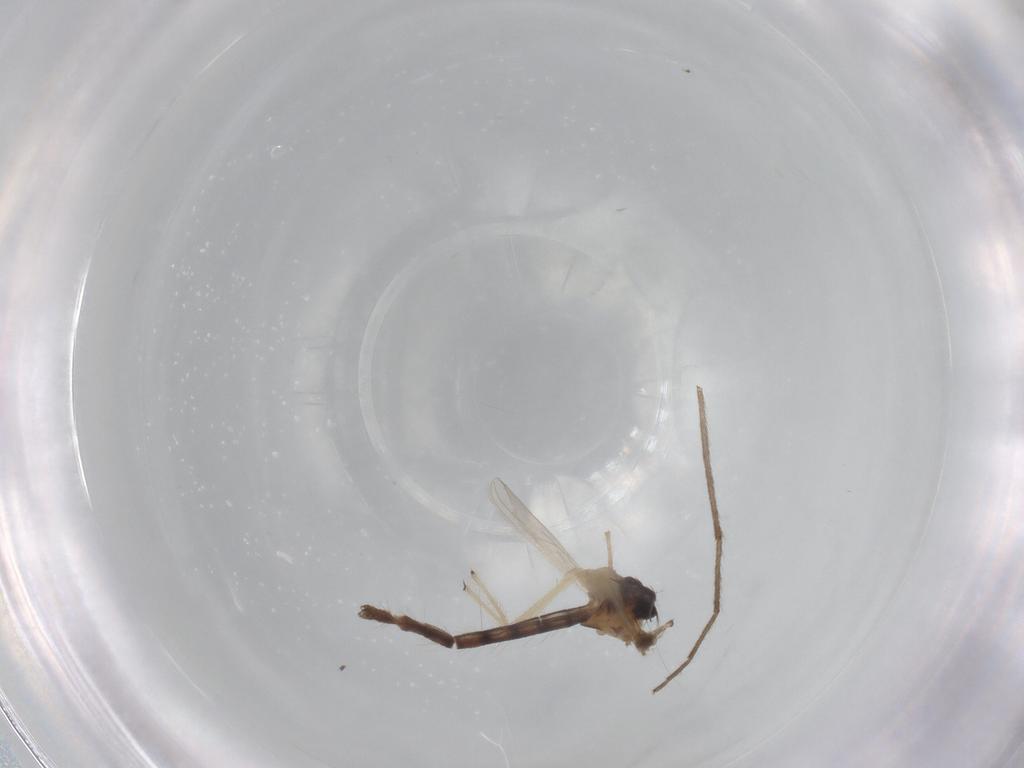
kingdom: Animalia
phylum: Arthropoda
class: Insecta
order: Diptera
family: Chironomidae
